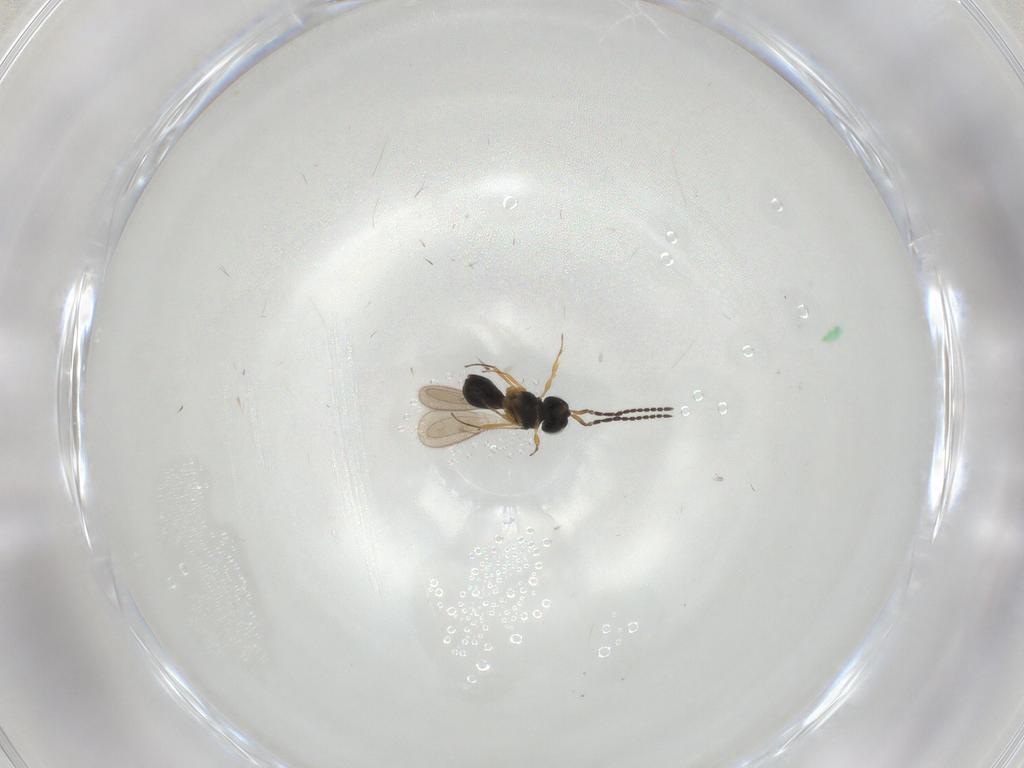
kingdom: Animalia
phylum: Arthropoda
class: Insecta
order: Hymenoptera
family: Scelionidae
